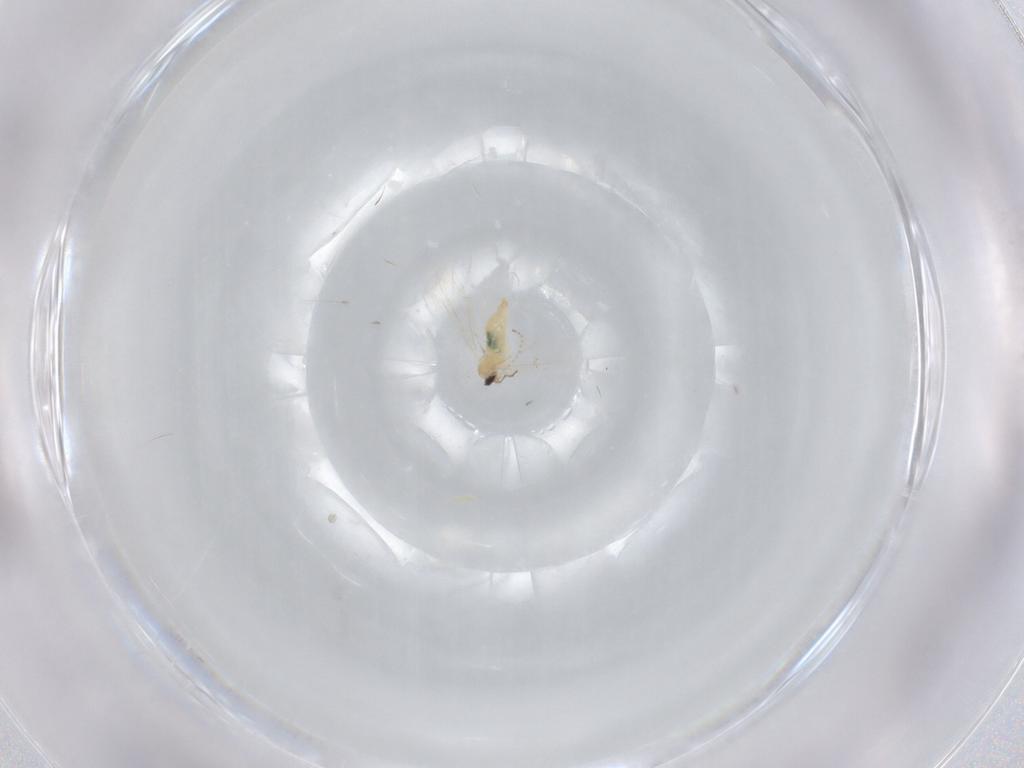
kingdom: Animalia
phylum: Arthropoda
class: Insecta
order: Diptera
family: Cecidomyiidae
